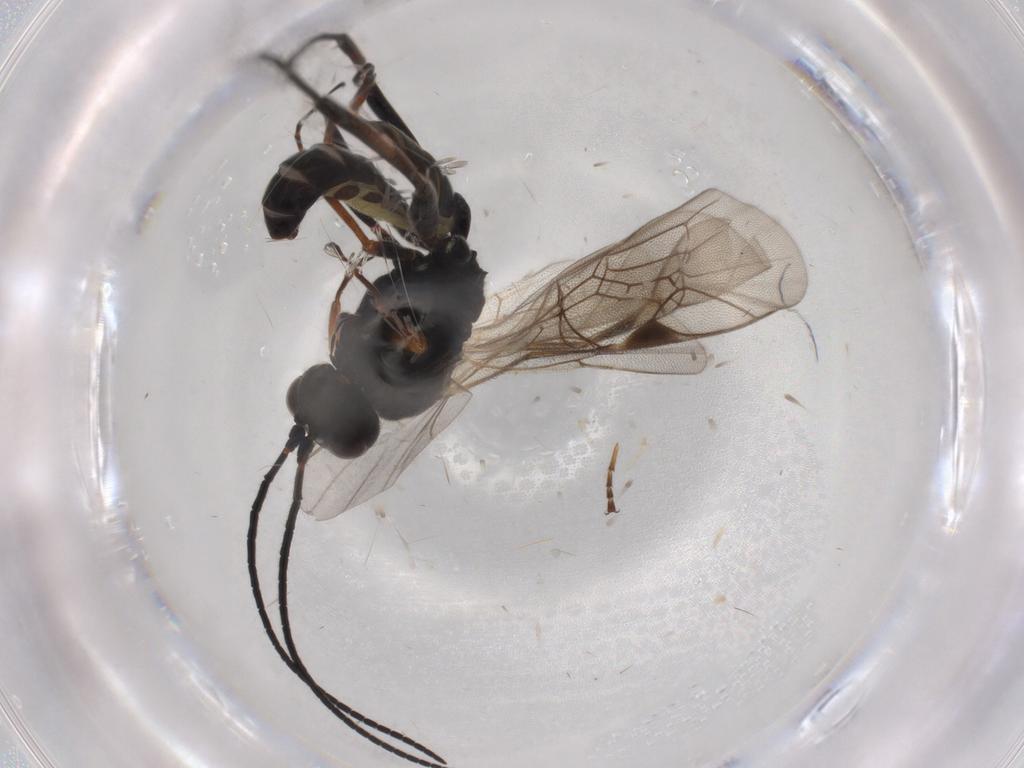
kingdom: Animalia
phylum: Arthropoda
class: Insecta
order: Hymenoptera
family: Ichneumonidae
